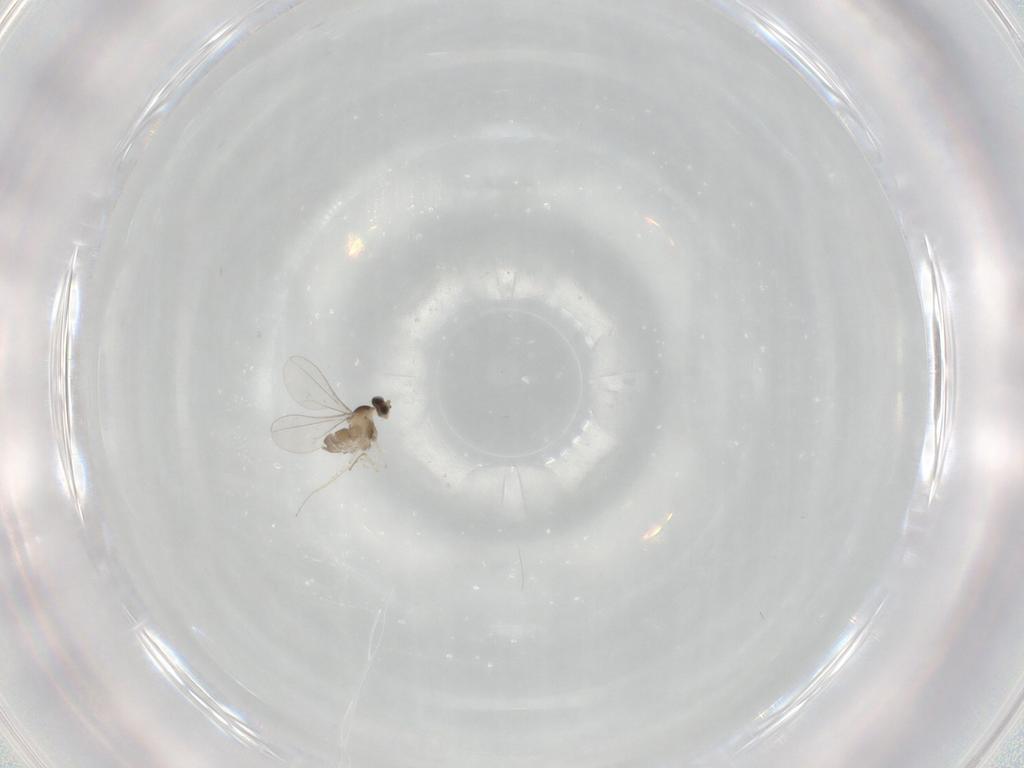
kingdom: Animalia
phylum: Arthropoda
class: Insecta
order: Diptera
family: Cecidomyiidae
